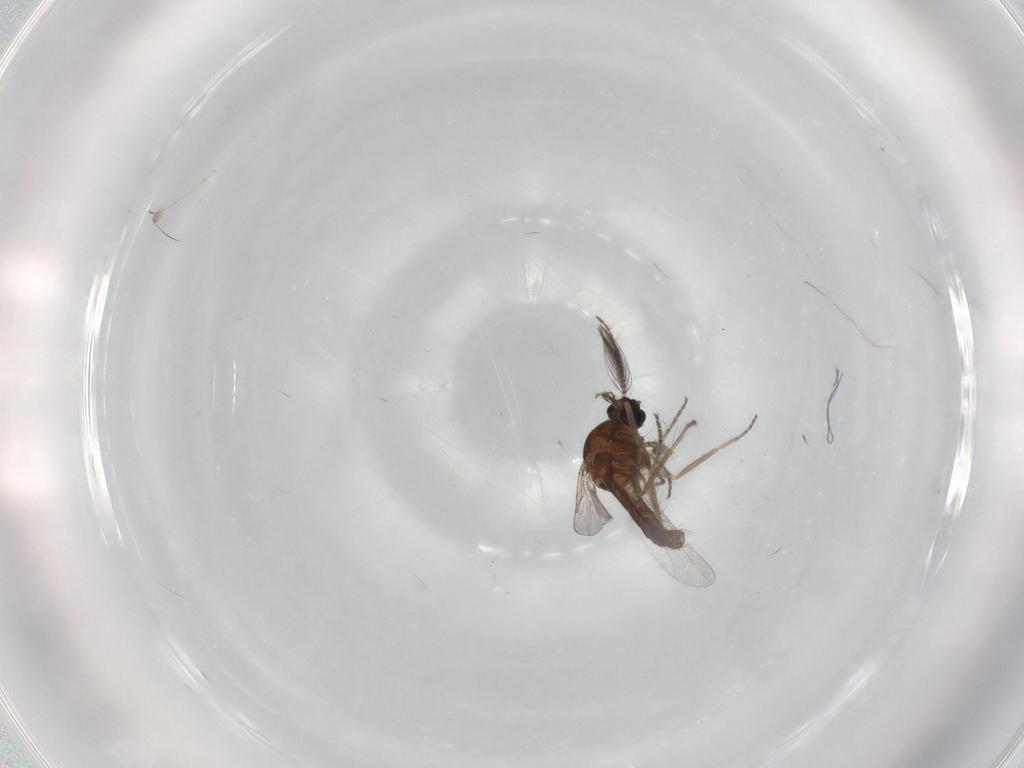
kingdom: Animalia
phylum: Arthropoda
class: Insecta
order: Diptera
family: Ceratopogonidae
